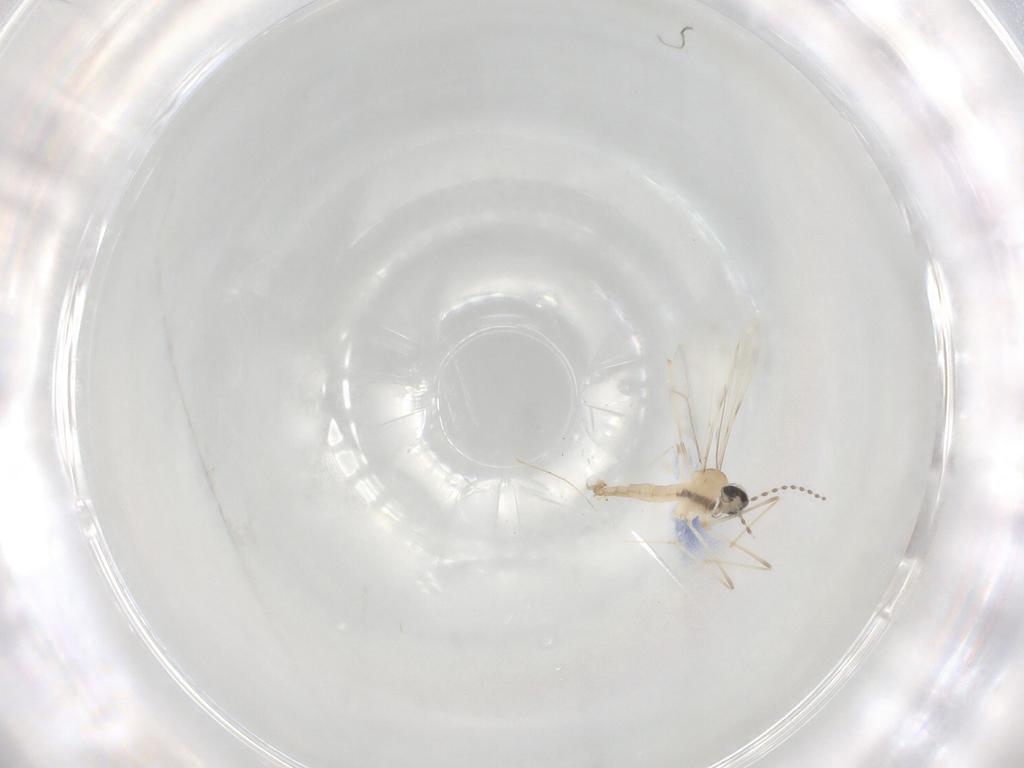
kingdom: Animalia
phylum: Arthropoda
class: Insecta
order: Diptera
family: Cecidomyiidae
